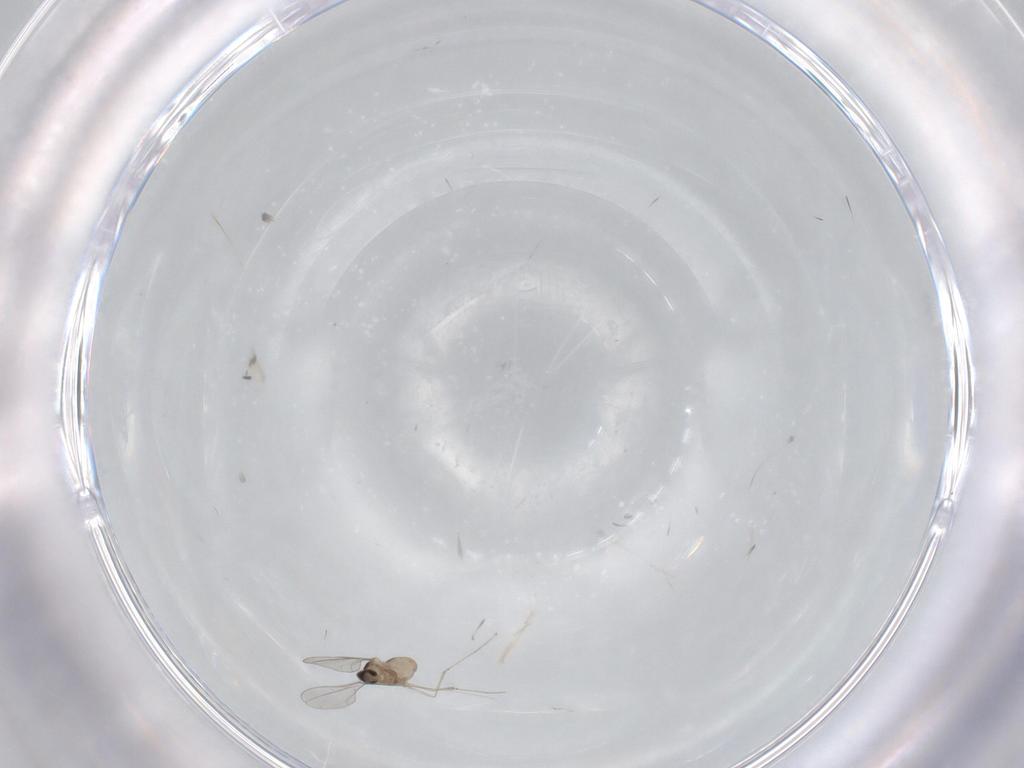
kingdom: Animalia
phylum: Arthropoda
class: Insecta
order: Diptera
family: Cecidomyiidae
